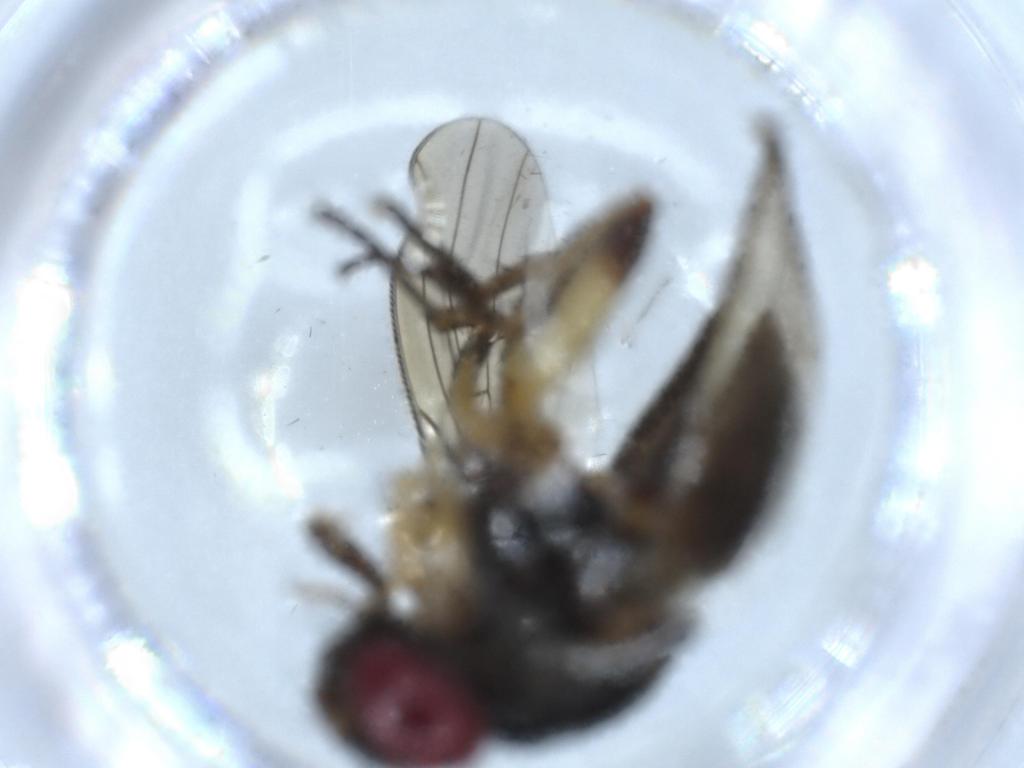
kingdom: Animalia
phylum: Arthropoda
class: Insecta
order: Diptera
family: Muscidae
